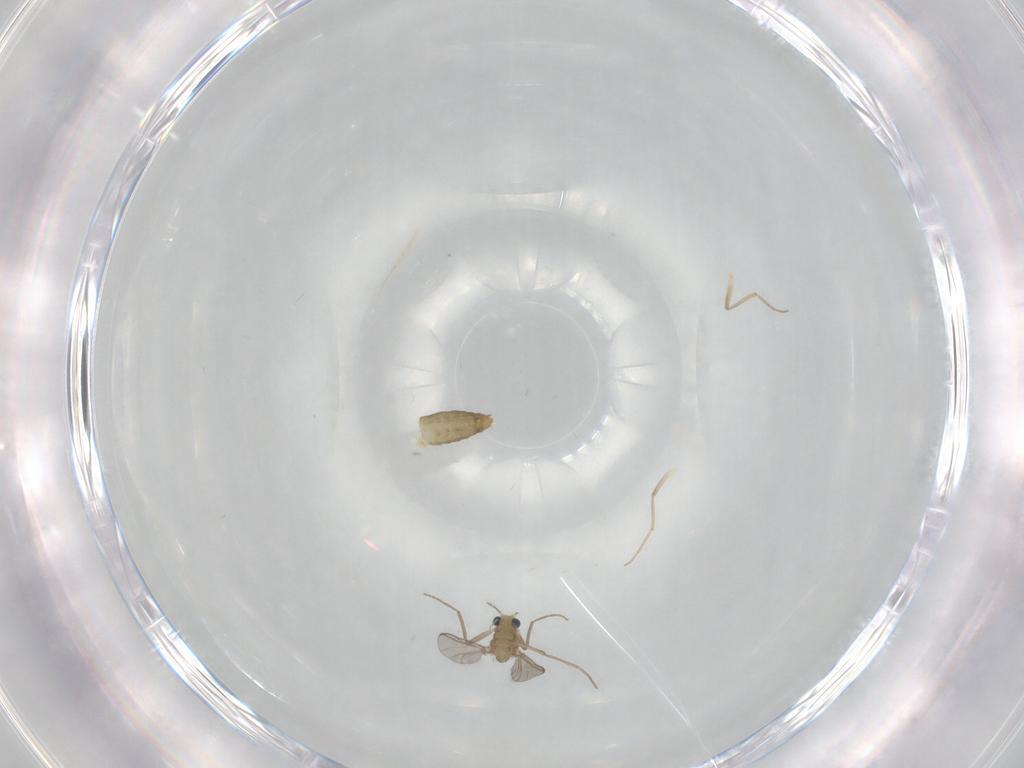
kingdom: Animalia
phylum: Arthropoda
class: Insecta
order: Diptera
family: Chironomidae
